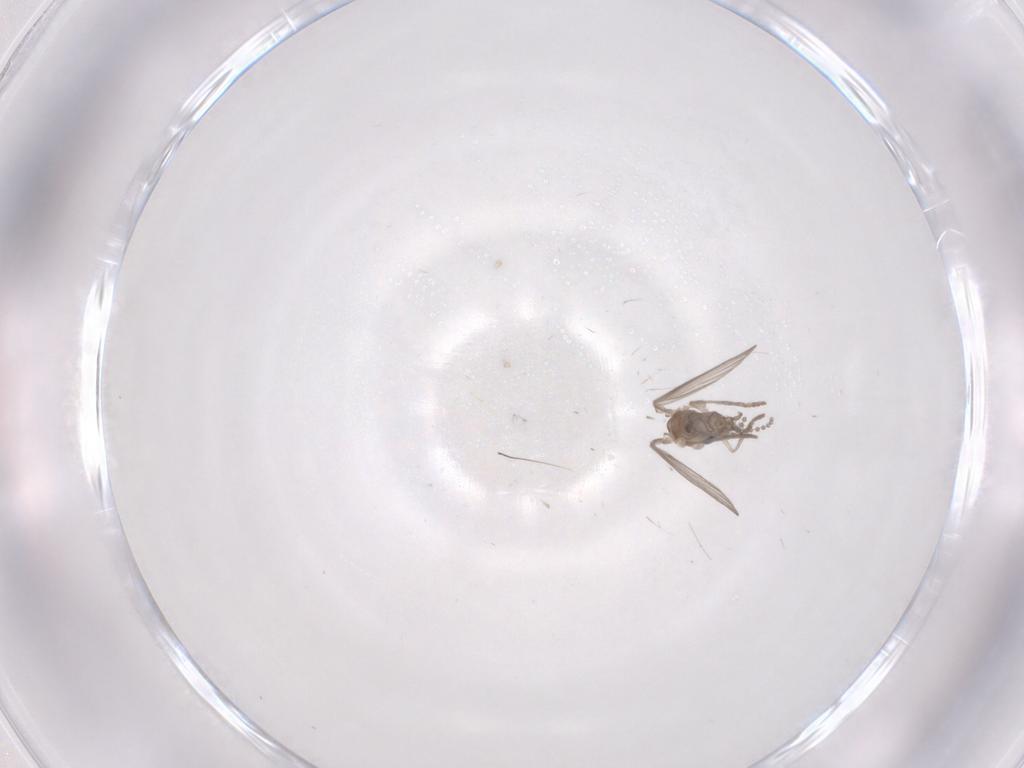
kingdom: Animalia
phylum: Arthropoda
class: Insecta
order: Diptera
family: Psychodidae
